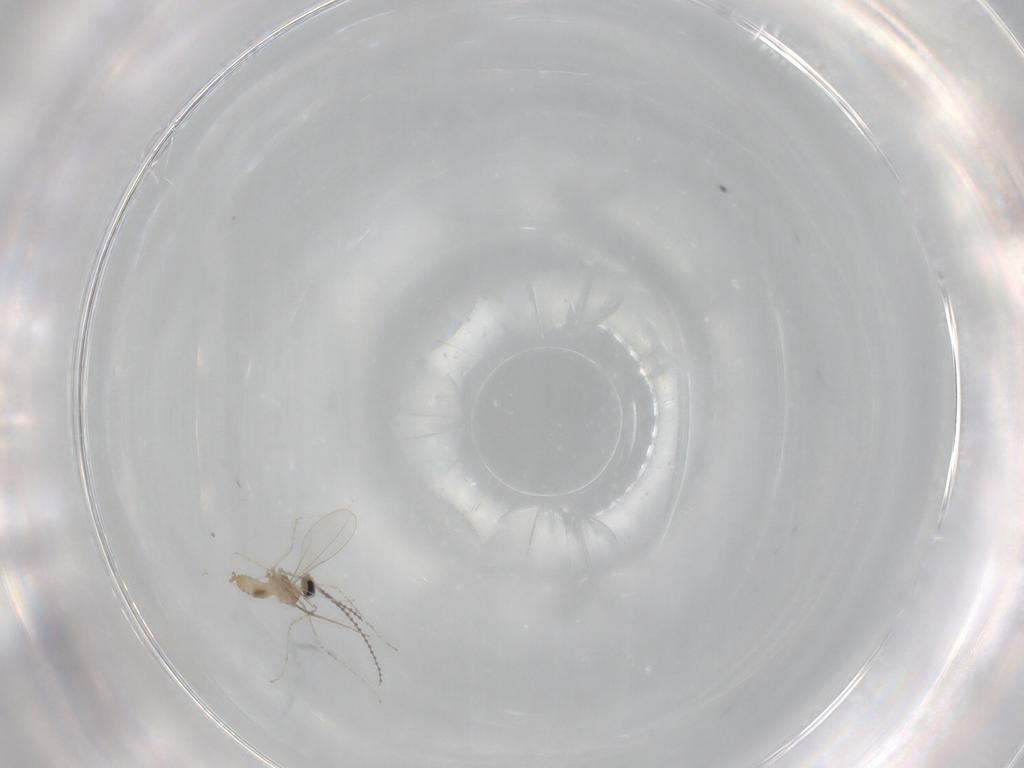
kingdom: Animalia
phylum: Arthropoda
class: Insecta
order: Diptera
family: Cecidomyiidae
